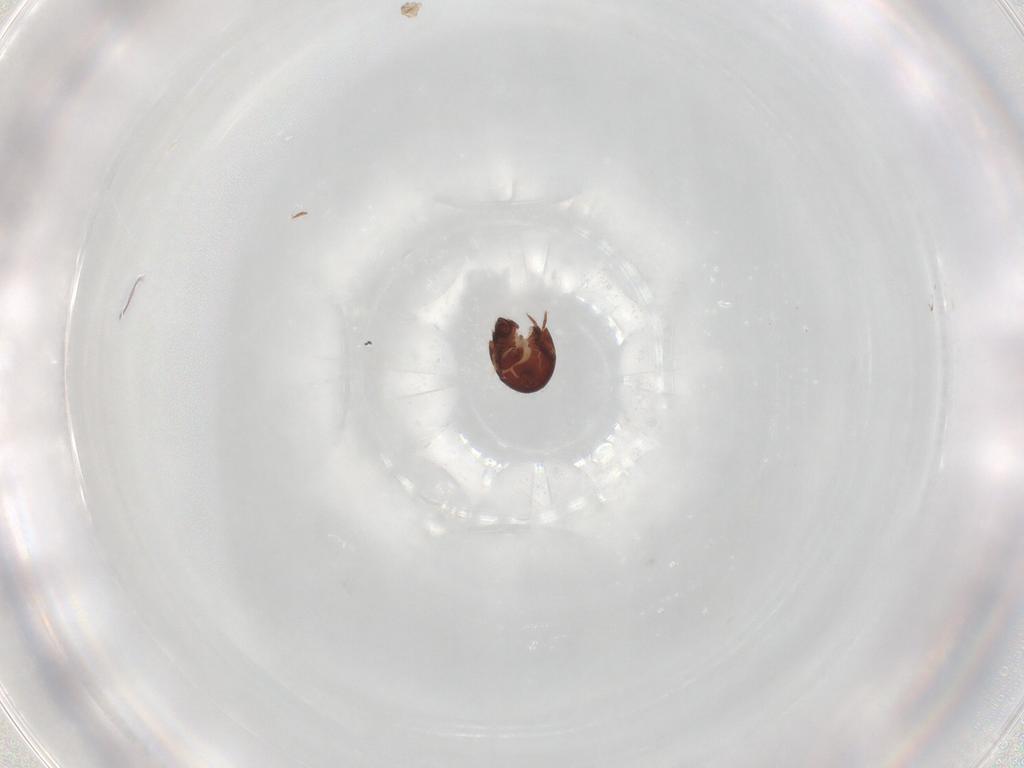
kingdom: Animalia
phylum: Arthropoda
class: Arachnida
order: Sarcoptiformes
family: Humerobatidae
